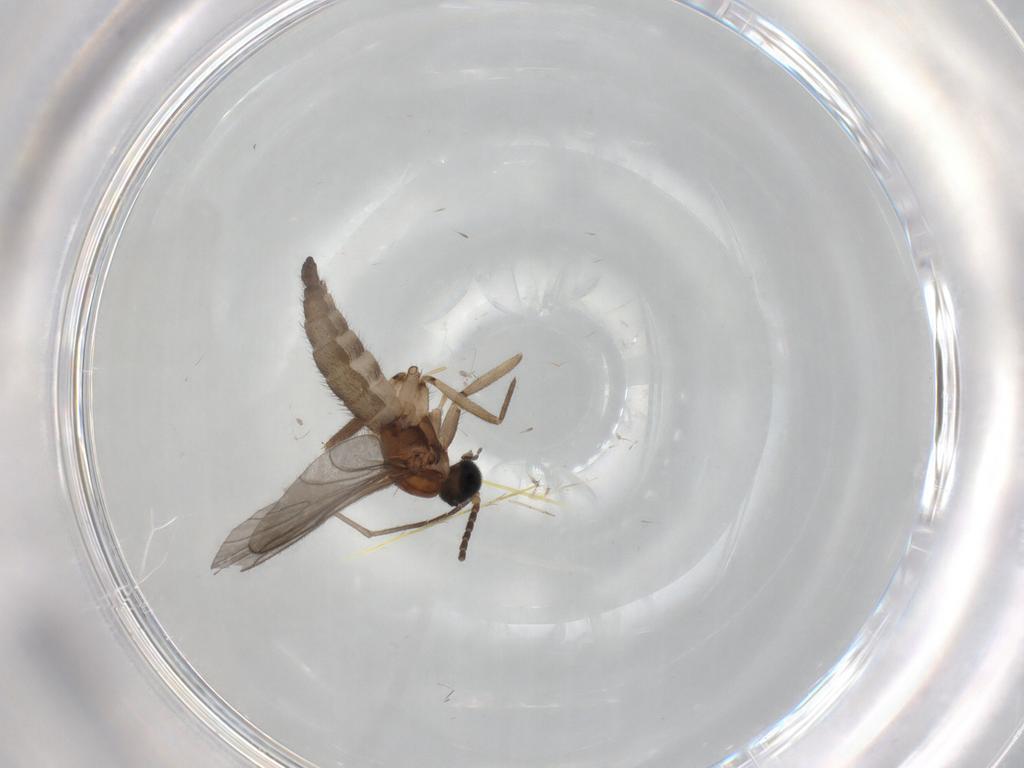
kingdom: Animalia
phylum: Arthropoda
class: Insecta
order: Diptera
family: Sciaridae
